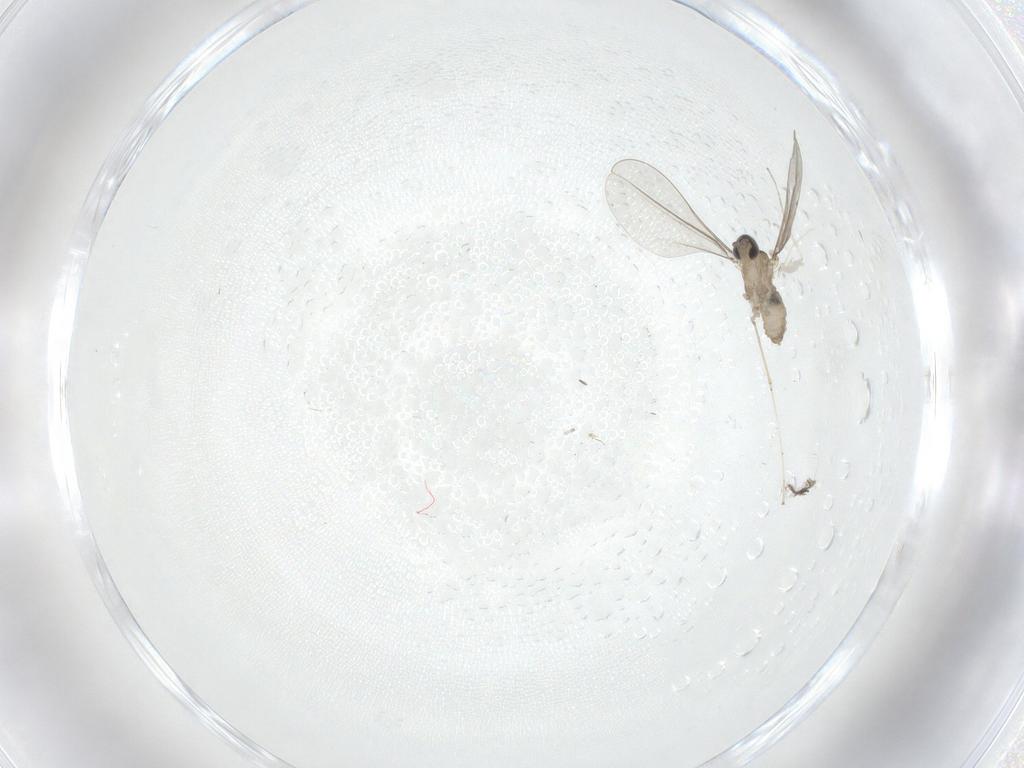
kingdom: Animalia
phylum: Arthropoda
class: Insecta
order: Diptera
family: Cecidomyiidae
